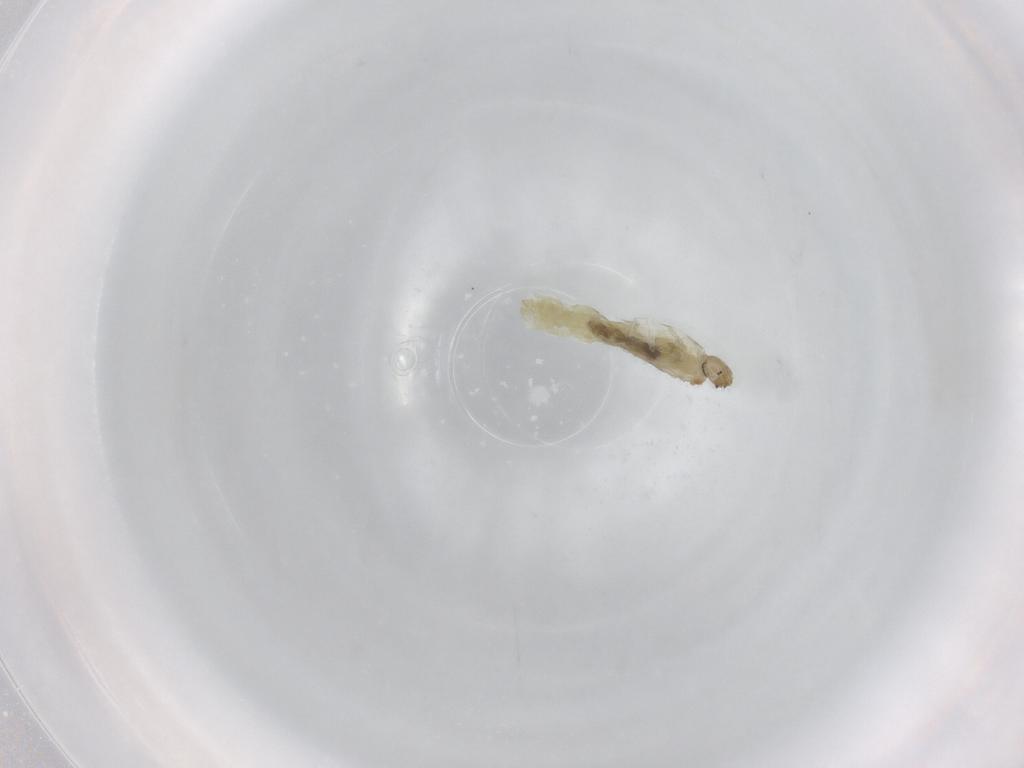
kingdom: Animalia
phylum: Arthropoda
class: Insecta
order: Diptera
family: Chironomidae
